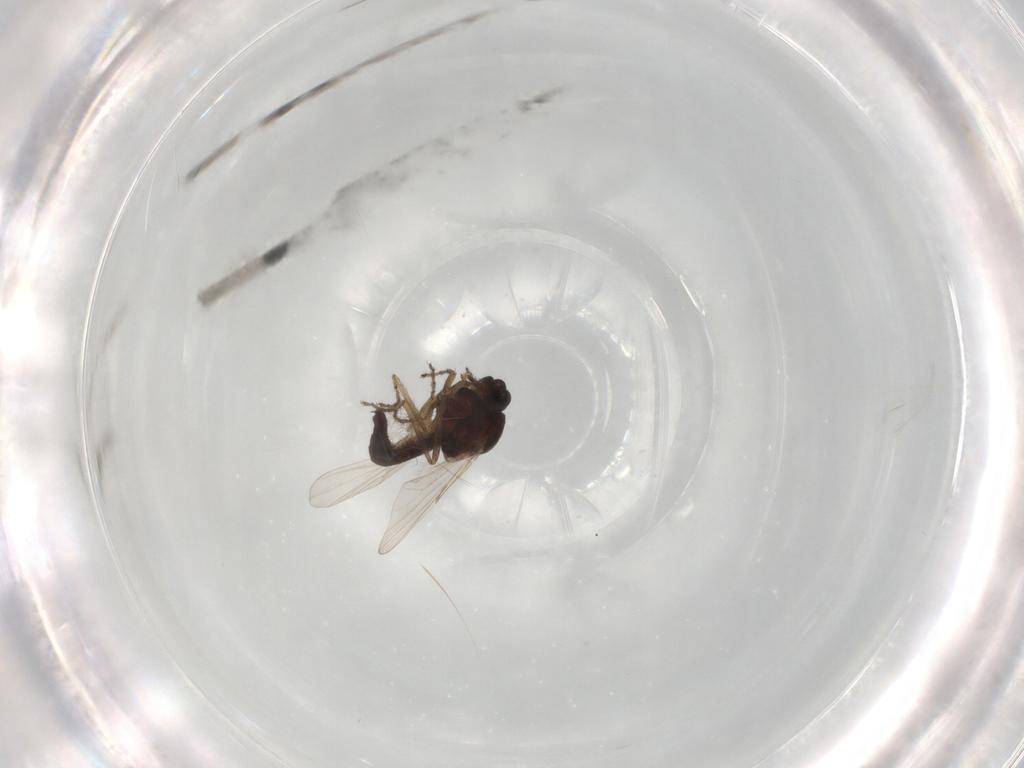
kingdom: Animalia
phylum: Arthropoda
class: Insecta
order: Diptera
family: Ceratopogonidae
